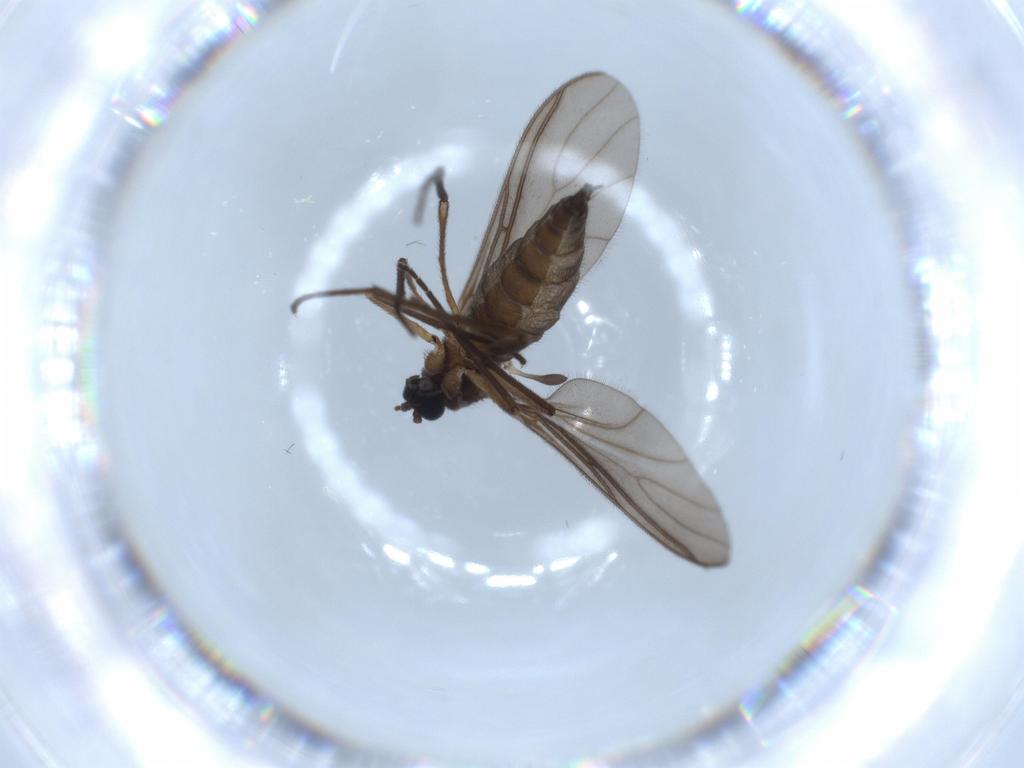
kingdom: Animalia
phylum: Arthropoda
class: Insecta
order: Diptera
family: Sciaridae
